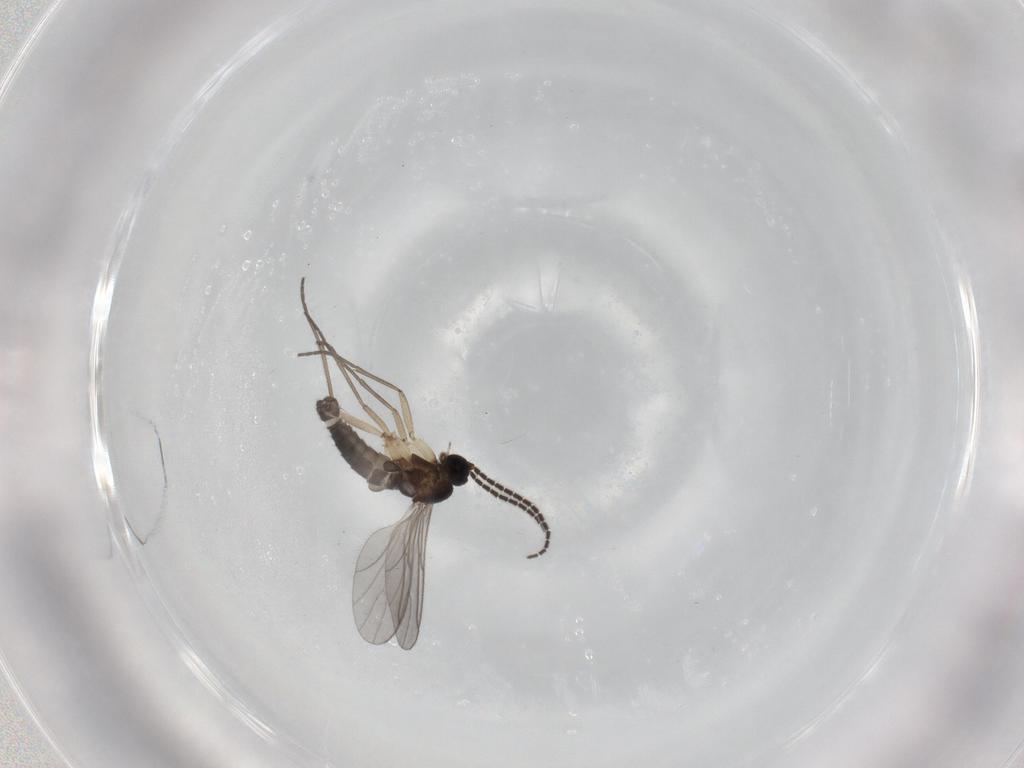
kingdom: Animalia
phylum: Arthropoda
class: Insecta
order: Diptera
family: Sciaridae
